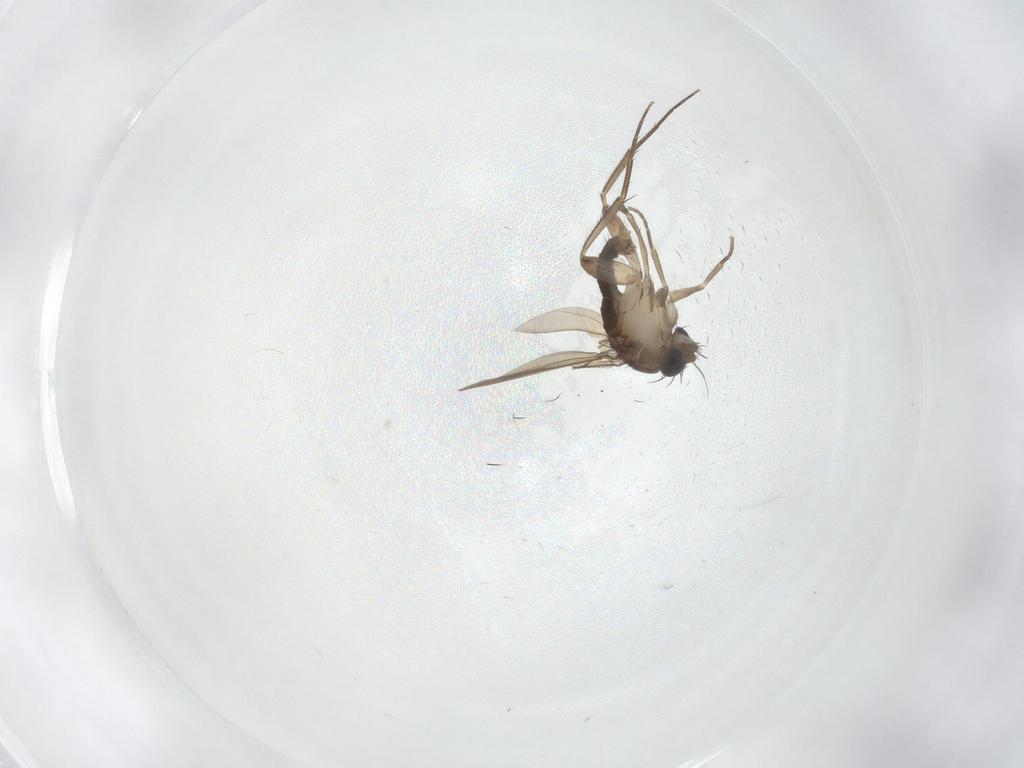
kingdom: Animalia
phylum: Arthropoda
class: Insecta
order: Diptera
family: Phoridae
